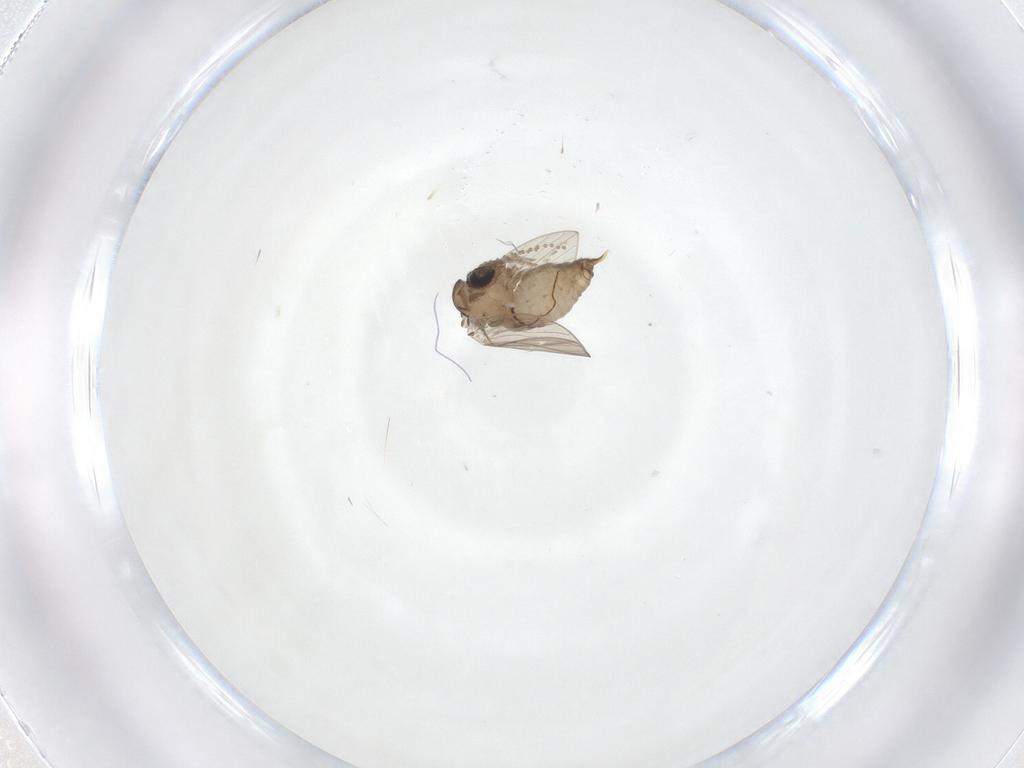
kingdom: Animalia
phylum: Arthropoda
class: Insecta
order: Diptera
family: Psychodidae
